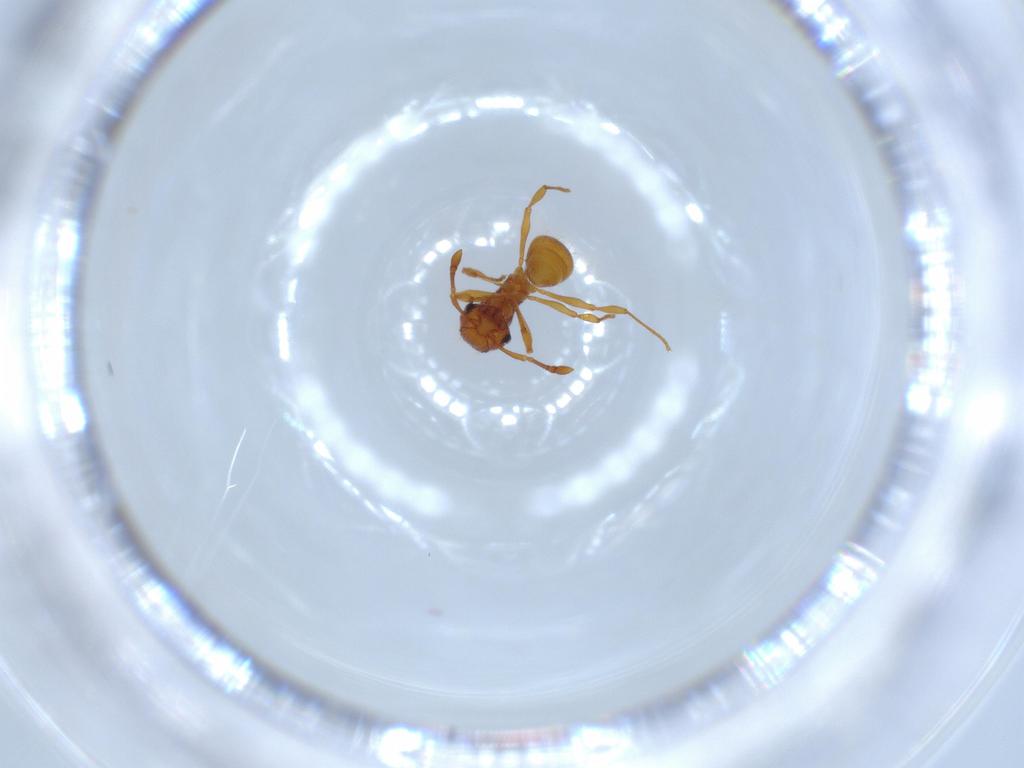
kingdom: Animalia
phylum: Arthropoda
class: Insecta
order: Hymenoptera
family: Formicidae
